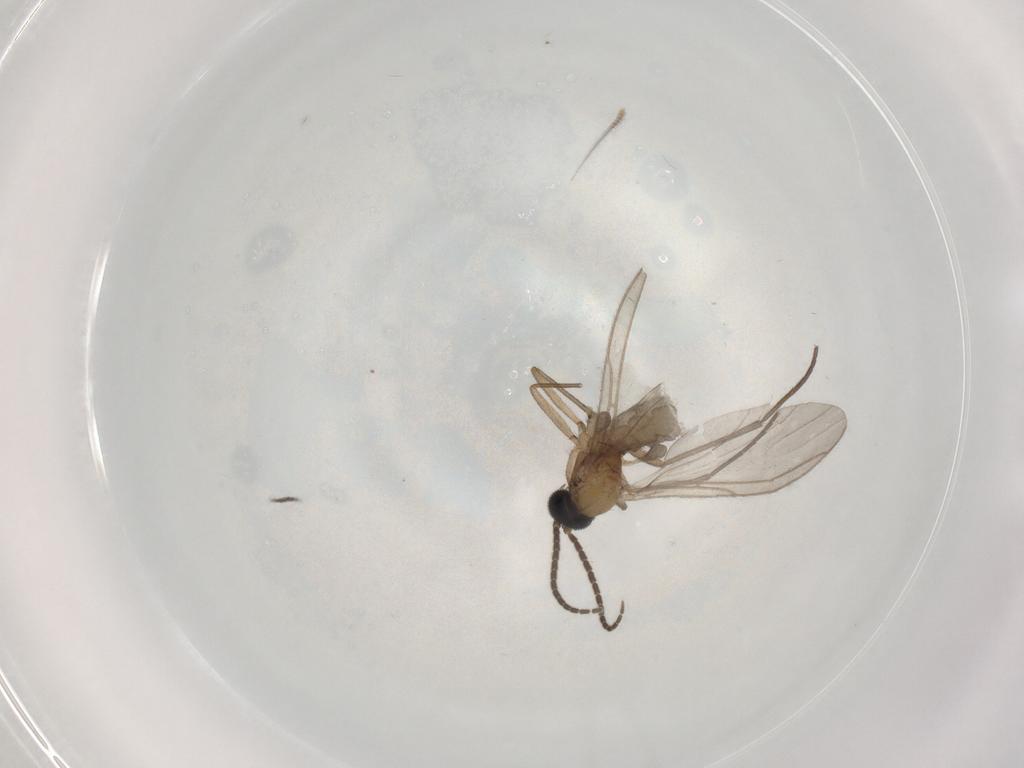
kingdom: Animalia
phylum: Arthropoda
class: Insecta
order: Diptera
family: Sciaridae
